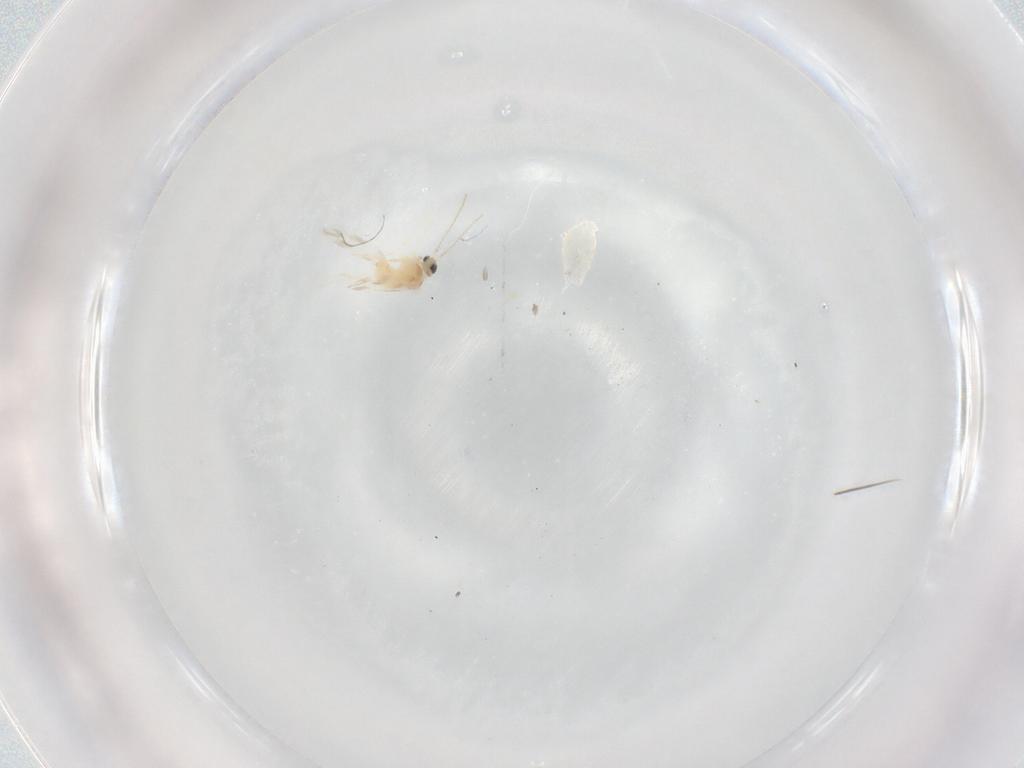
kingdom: Animalia
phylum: Arthropoda
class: Insecta
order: Diptera
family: Cecidomyiidae
